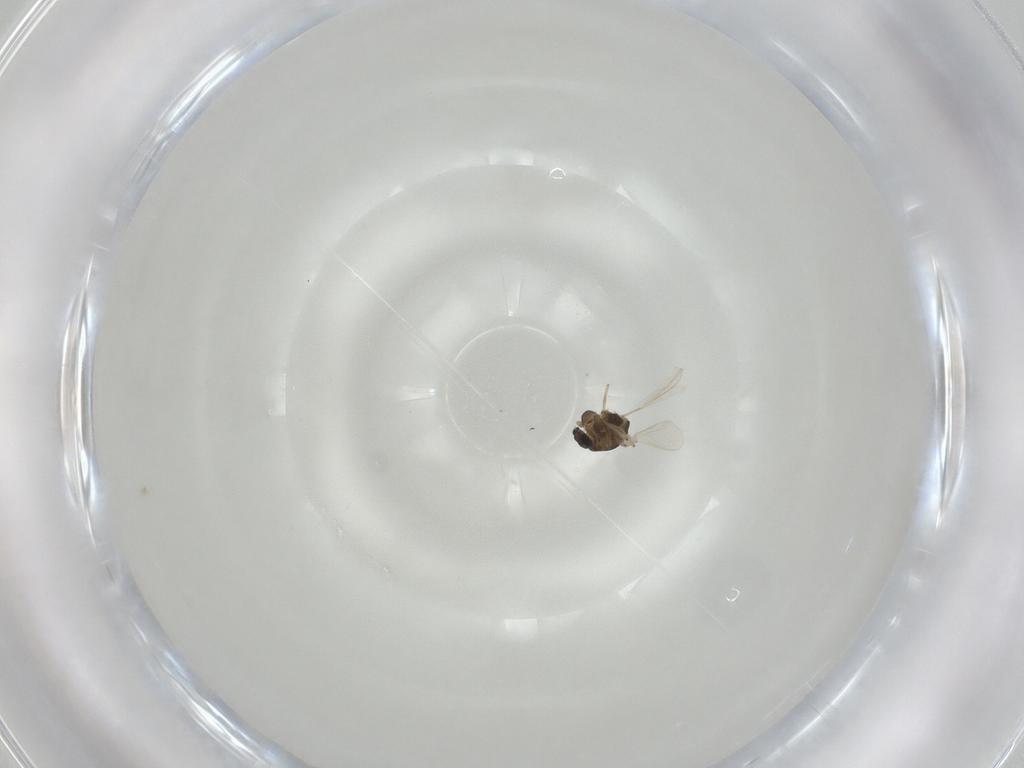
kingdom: Animalia
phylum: Arthropoda
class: Insecta
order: Diptera
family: Chironomidae
